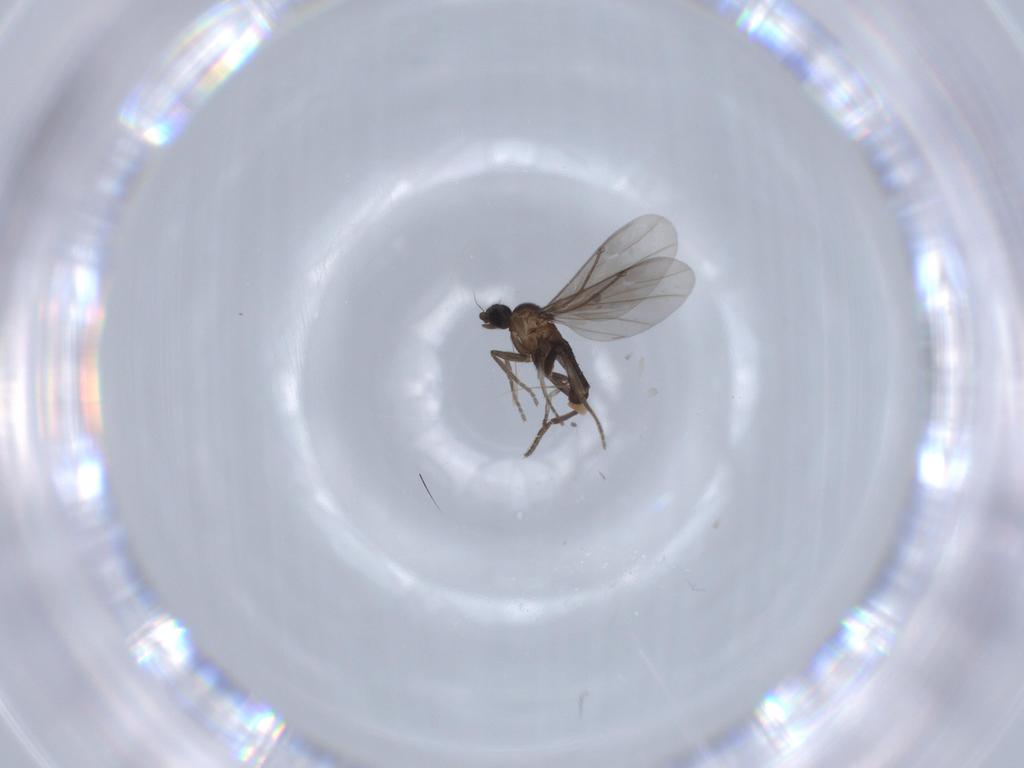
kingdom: Animalia
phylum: Arthropoda
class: Insecta
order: Diptera
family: Phoridae
